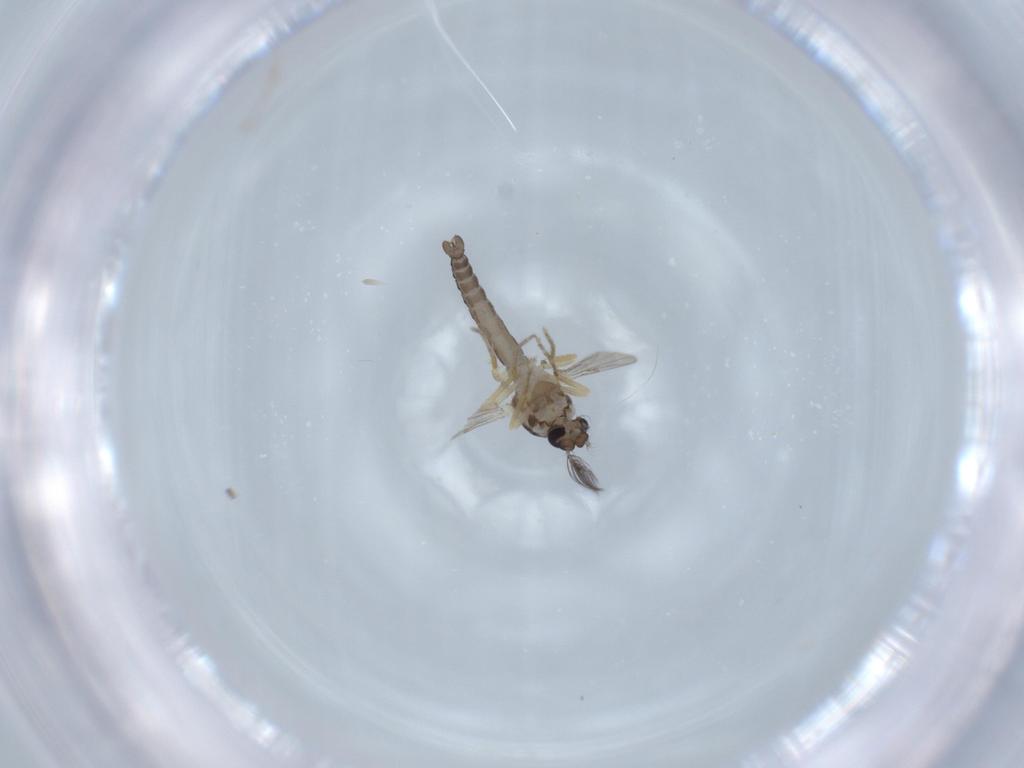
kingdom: Animalia
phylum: Arthropoda
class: Insecta
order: Diptera
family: Ceratopogonidae
